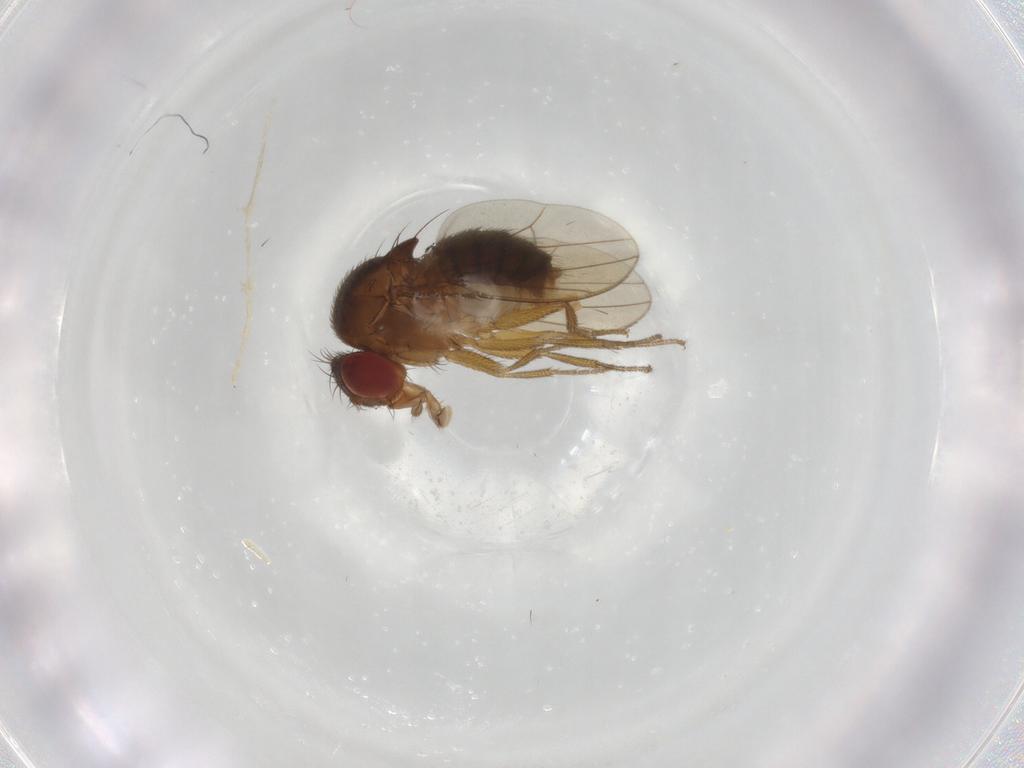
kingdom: Animalia
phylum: Arthropoda
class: Insecta
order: Diptera
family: Drosophilidae
